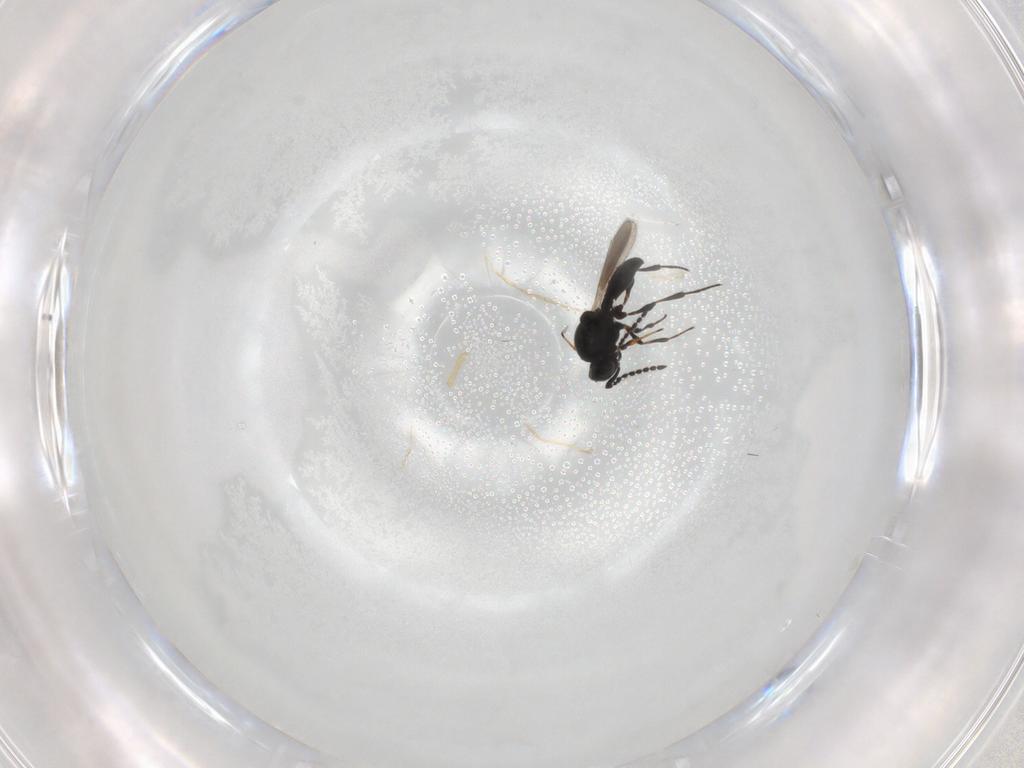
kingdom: Animalia
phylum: Arthropoda
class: Insecta
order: Hymenoptera
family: Platygastridae
